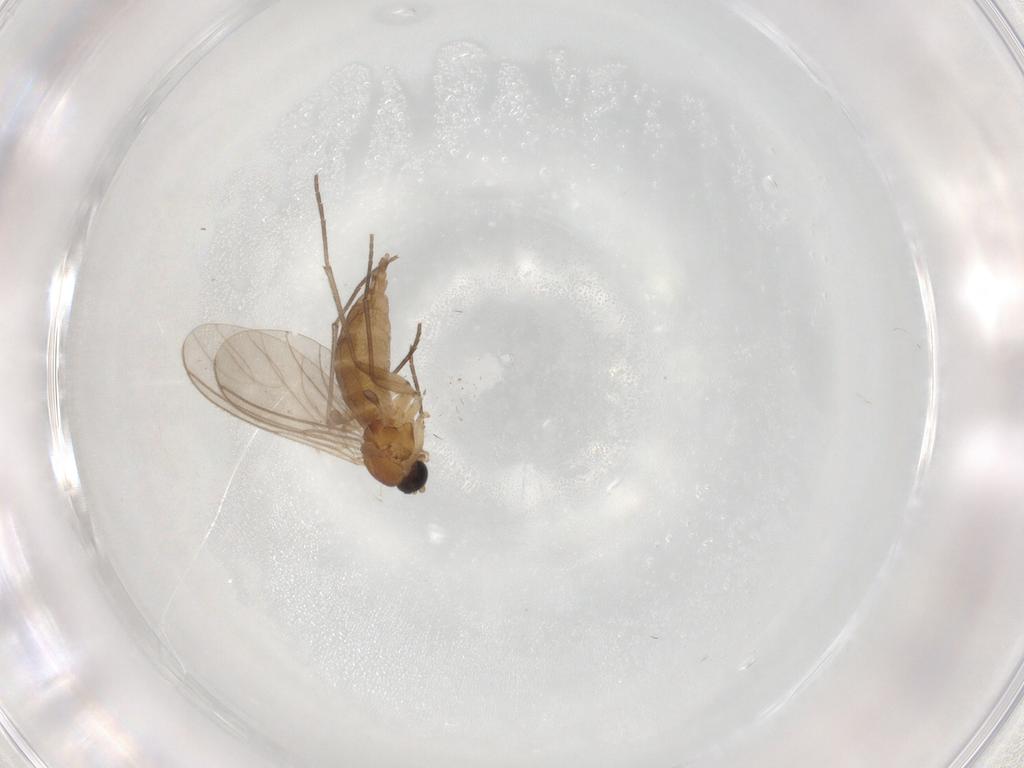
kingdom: Animalia
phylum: Arthropoda
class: Insecta
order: Diptera
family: Sciaridae
